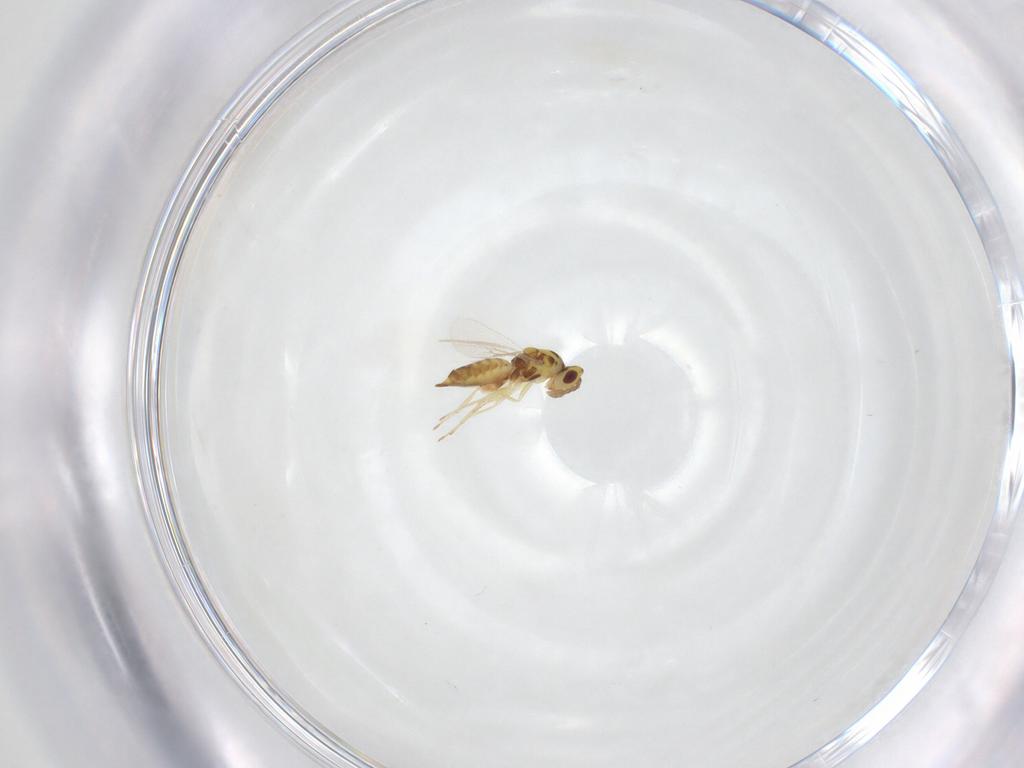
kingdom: Animalia
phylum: Arthropoda
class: Insecta
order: Hymenoptera
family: Eulophidae
